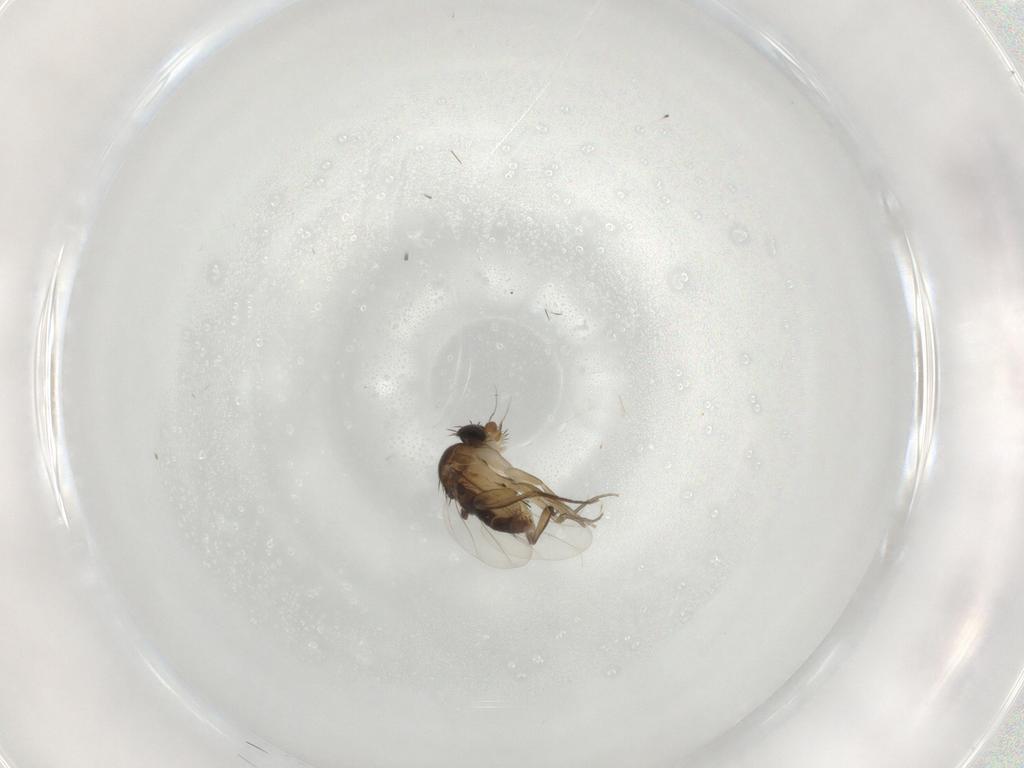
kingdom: Animalia
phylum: Arthropoda
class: Insecta
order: Diptera
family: Phoridae
